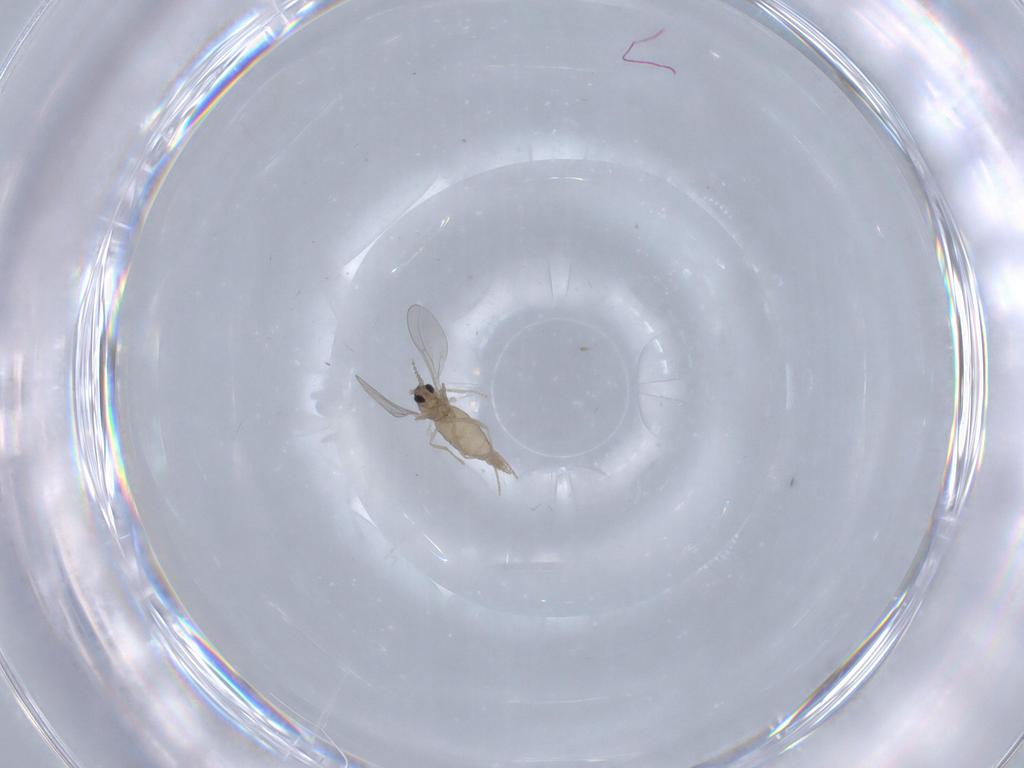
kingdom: Animalia
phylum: Arthropoda
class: Insecta
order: Diptera
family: Cecidomyiidae
